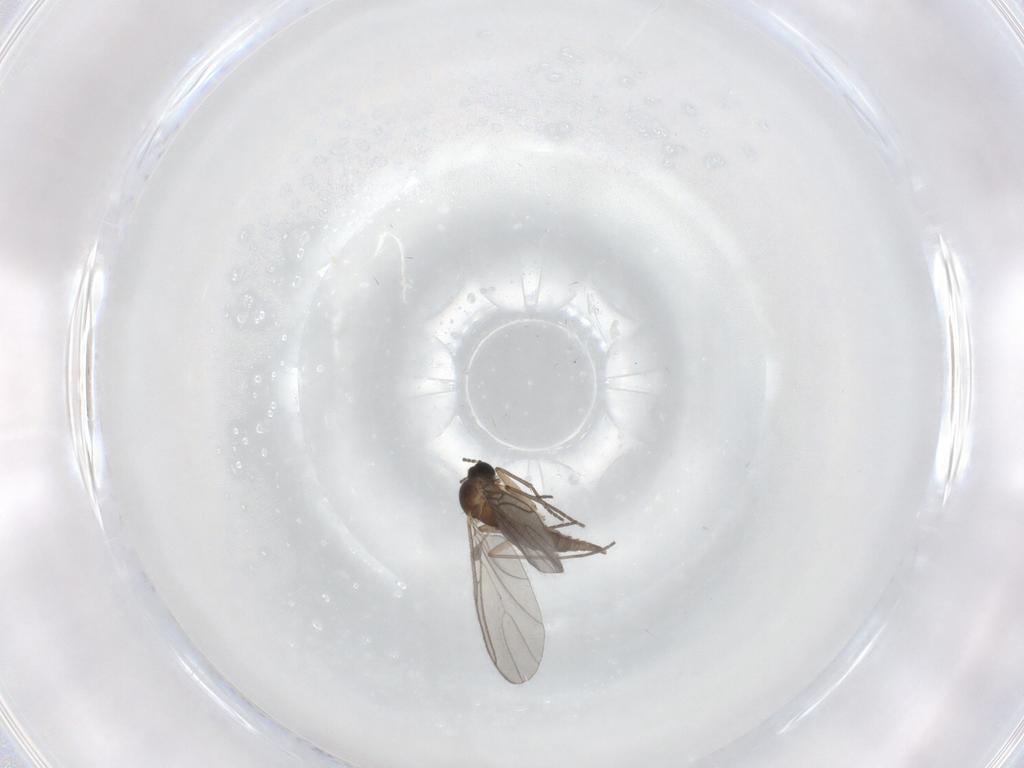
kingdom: Animalia
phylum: Arthropoda
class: Insecta
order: Diptera
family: Sciaridae
